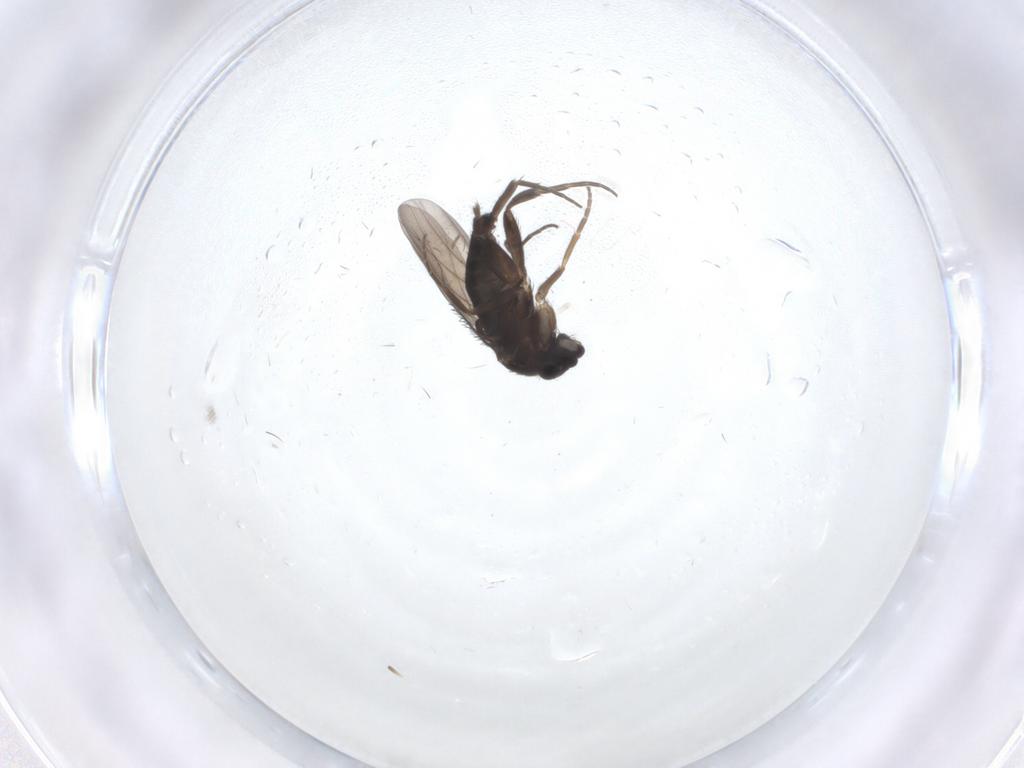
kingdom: Animalia
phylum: Arthropoda
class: Insecta
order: Diptera
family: Phoridae
